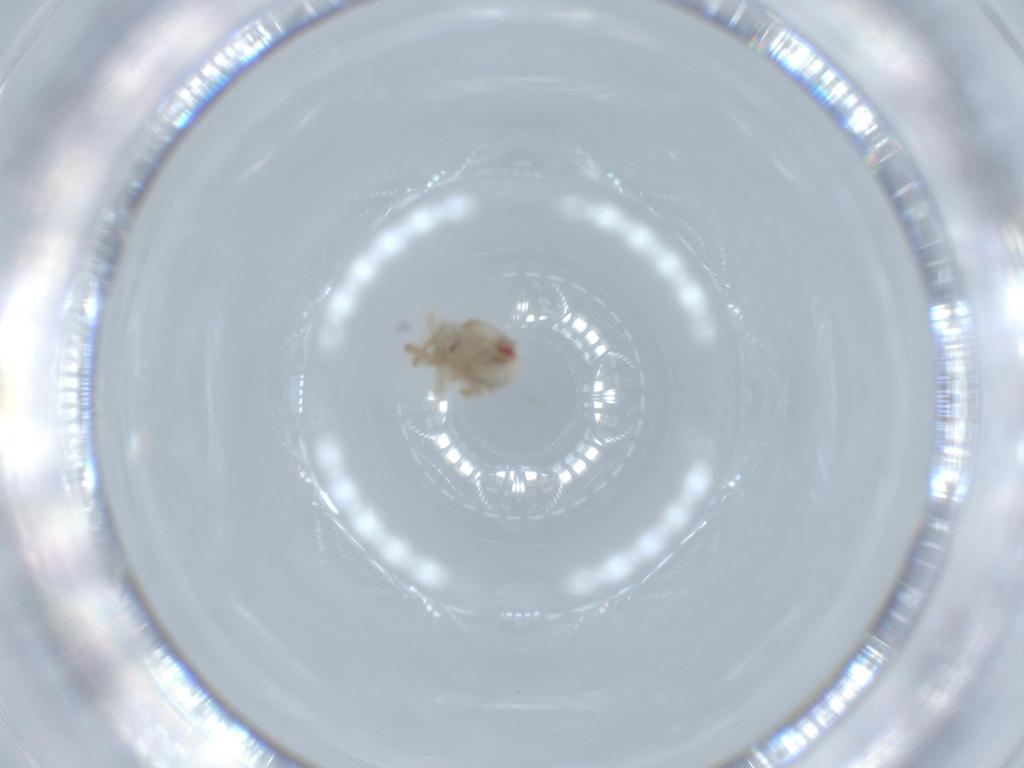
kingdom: Animalia
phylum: Arthropoda
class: Insecta
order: Hemiptera
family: Acanaloniidae
